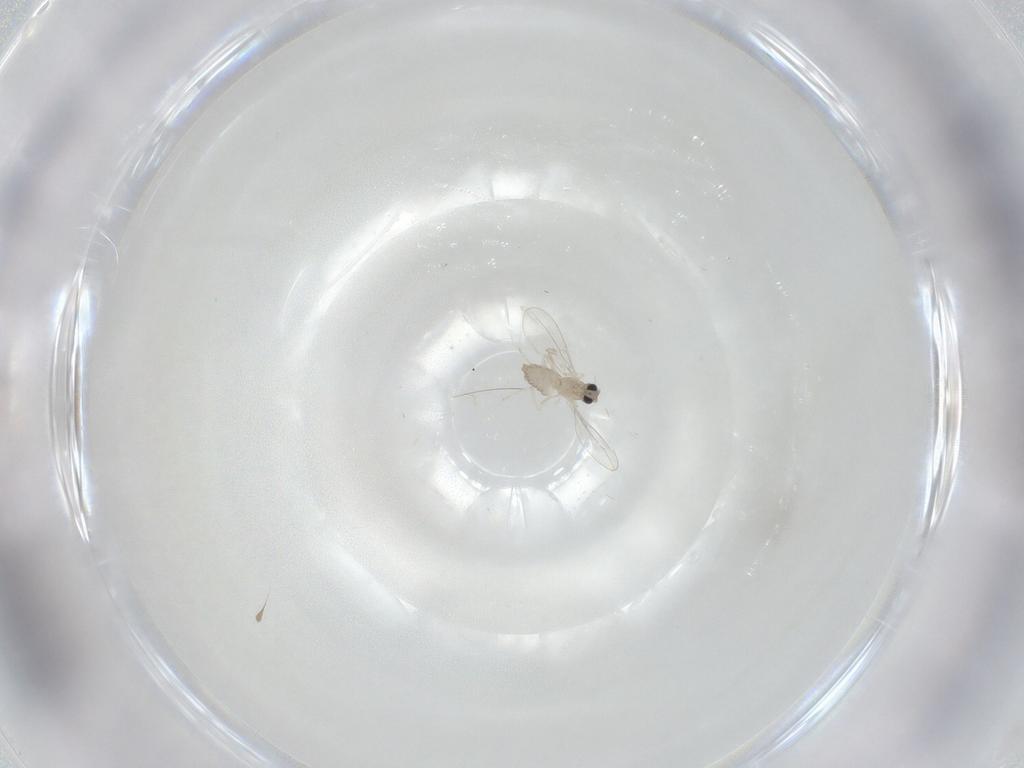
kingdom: Animalia
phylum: Arthropoda
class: Insecta
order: Diptera
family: Cecidomyiidae
